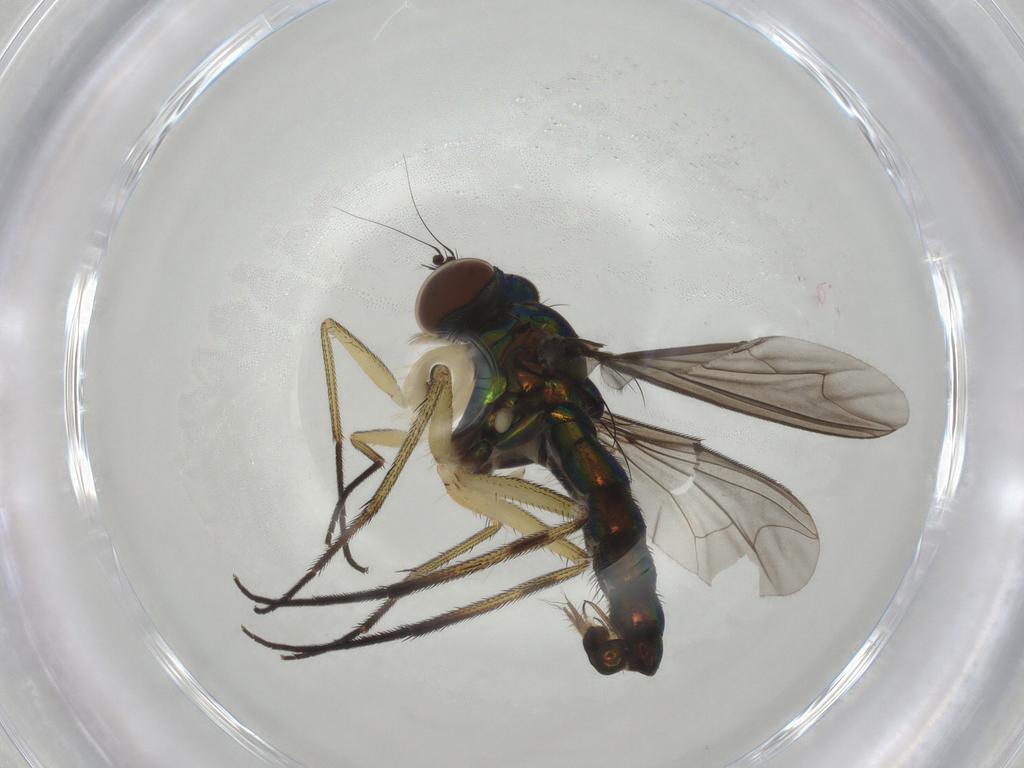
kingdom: Animalia
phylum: Arthropoda
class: Insecta
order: Diptera
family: Dolichopodidae
